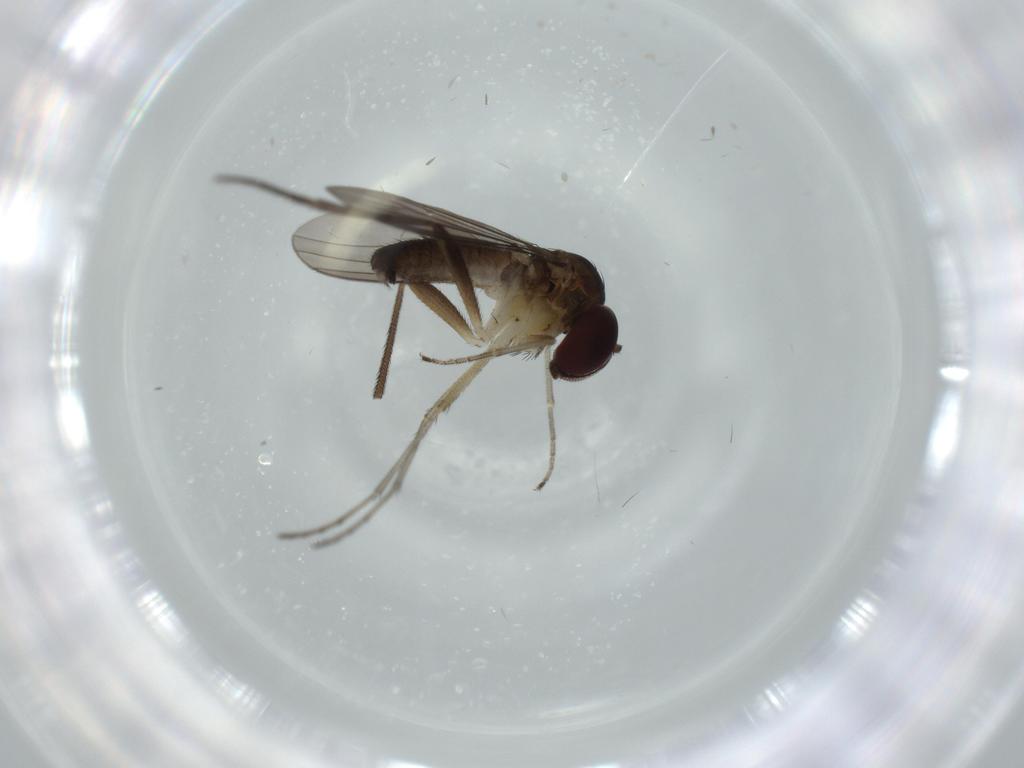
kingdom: Animalia
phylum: Arthropoda
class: Insecta
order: Diptera
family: Dolichopodidae
